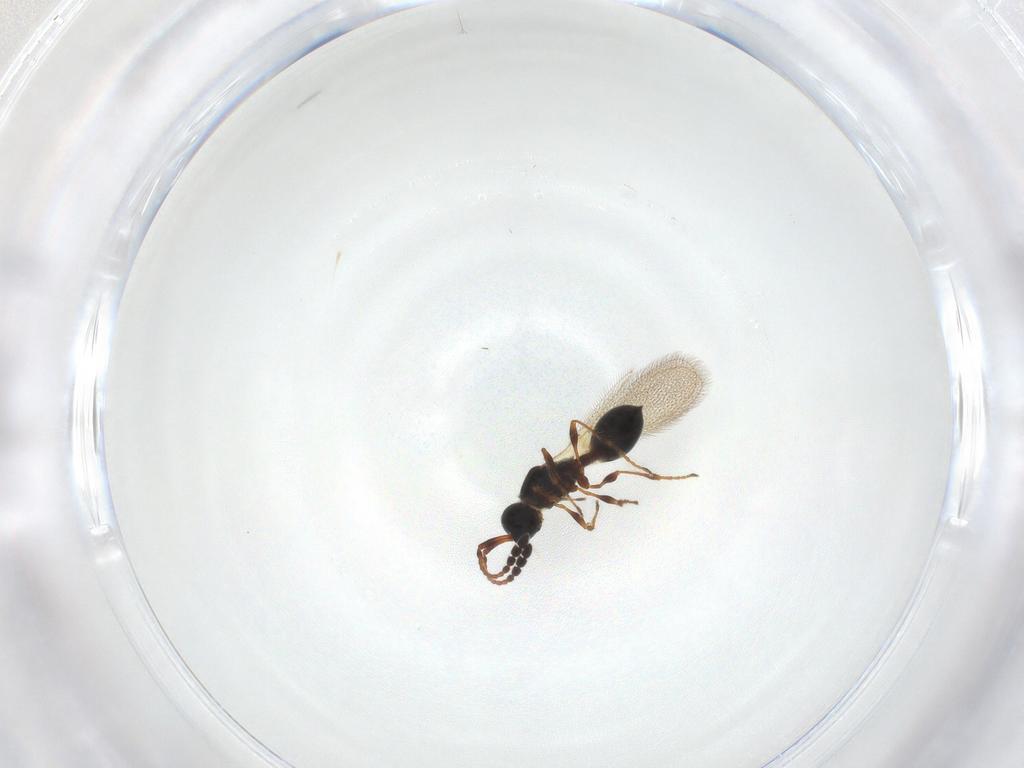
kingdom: Animalia
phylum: Arthropoda
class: Insecta
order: Hymenoptera
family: Diapriidae
